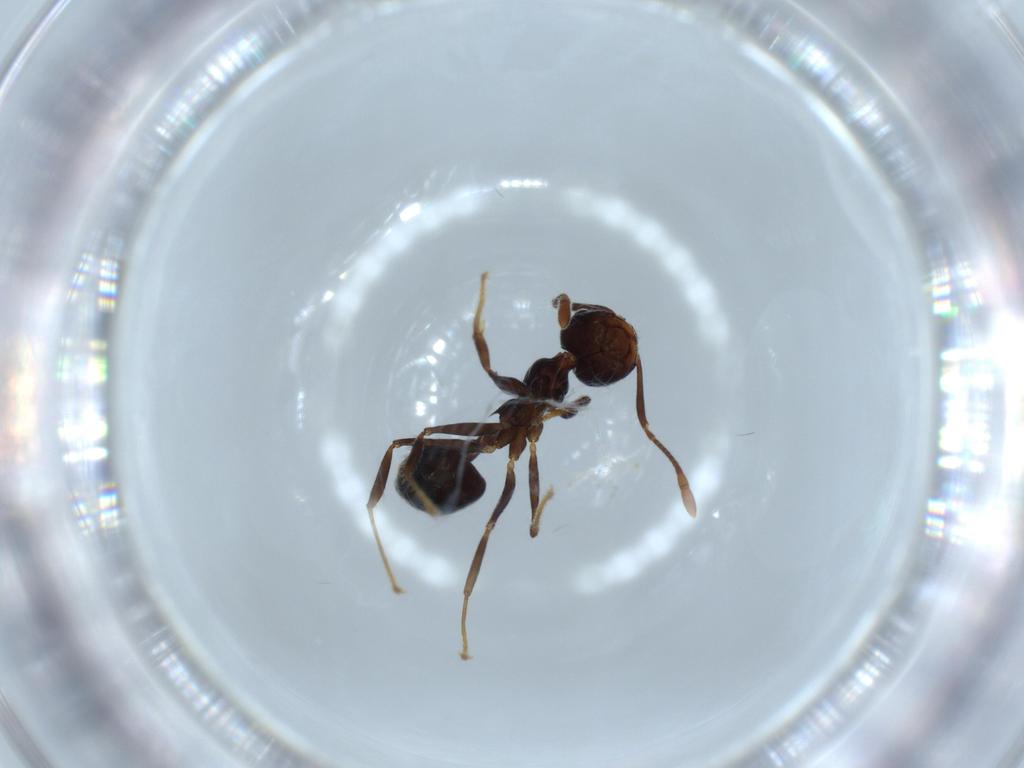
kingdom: Animalia
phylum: Arthropoda
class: Insecta
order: Hymenoptera
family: Formicidae
